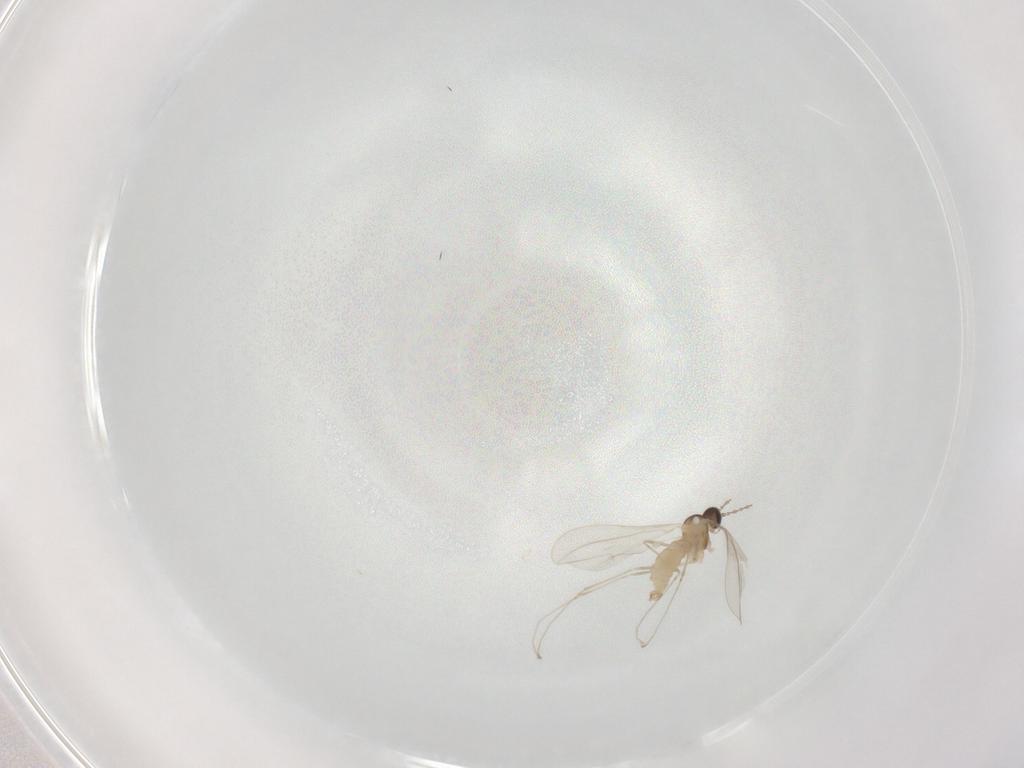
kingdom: Animalia
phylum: Arthropoda
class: Insecta
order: Diptera
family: Cecidomyiidae
